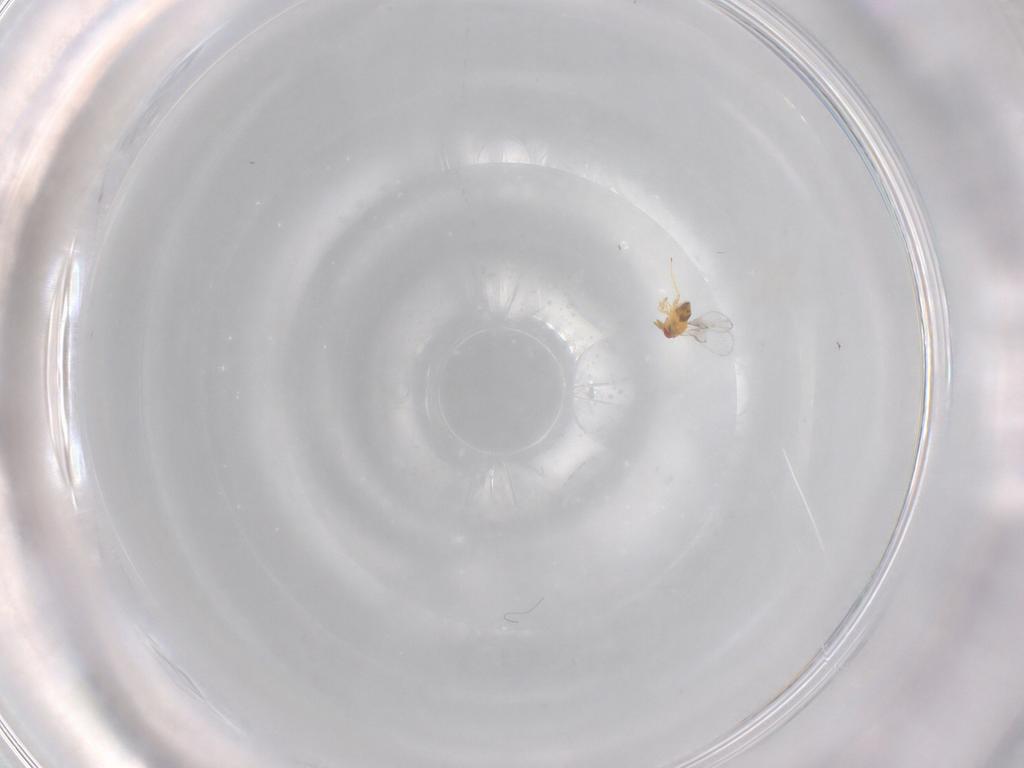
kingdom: Animalia
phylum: Arthropoda
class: Insecta
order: Hymenoptera
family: Trichogrammatidae
